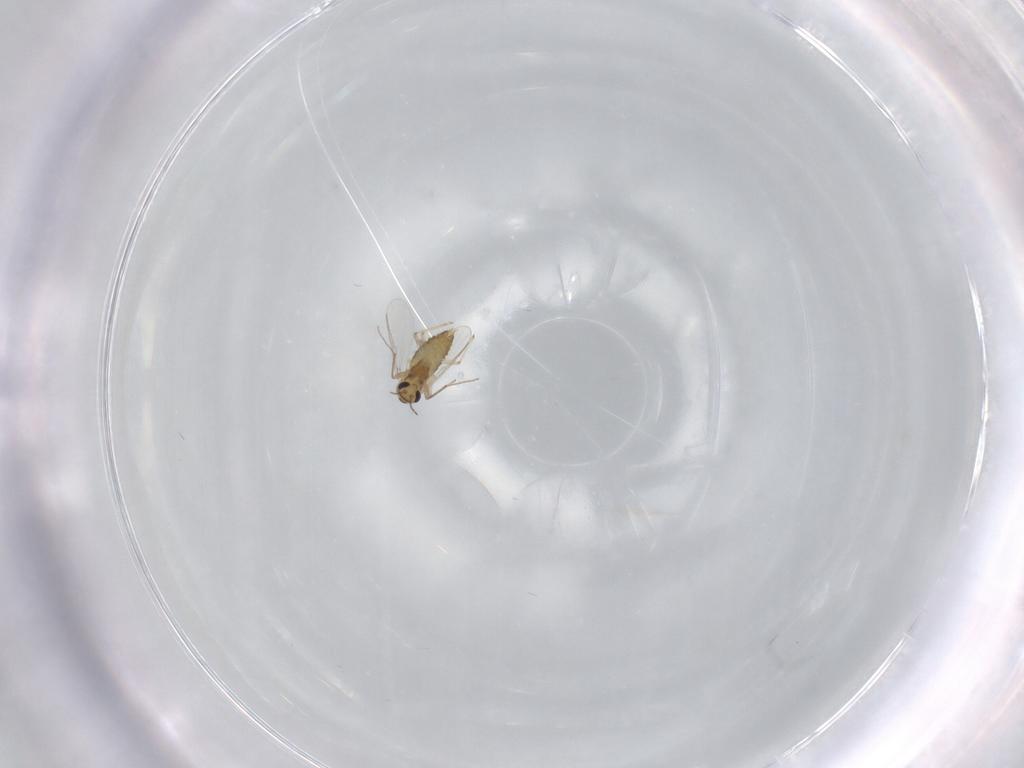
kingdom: Animalia
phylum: Arthropoda
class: Insecta
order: Diptera
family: Chironomidae
